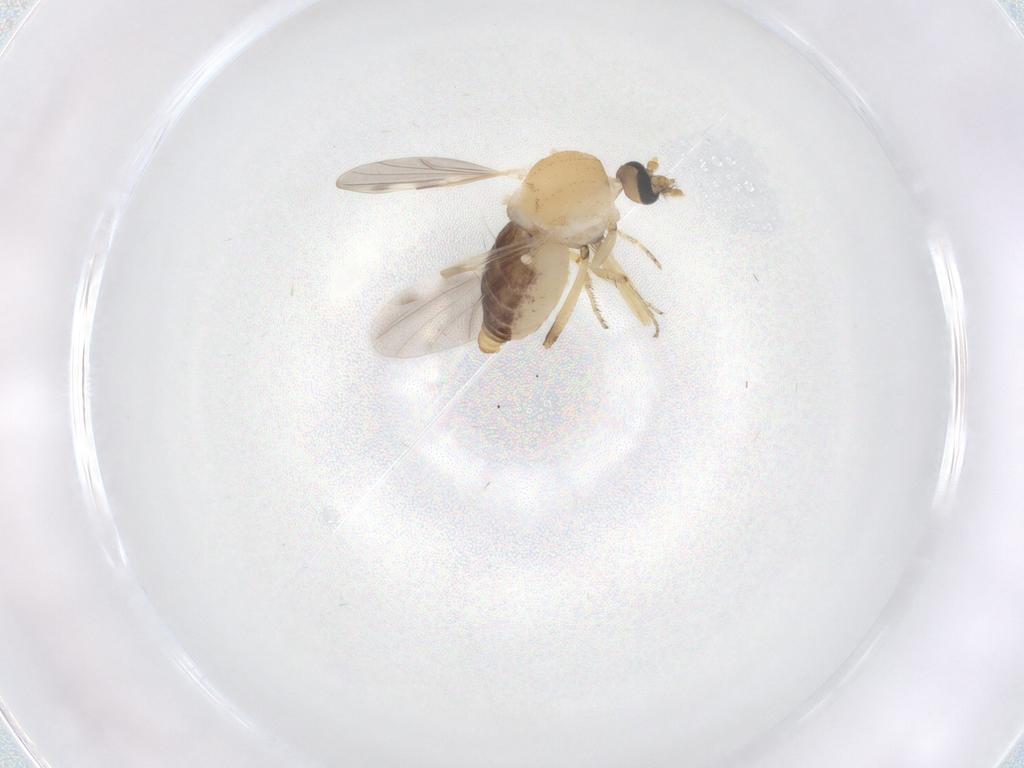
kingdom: Animalia
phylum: Arthropoda
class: Insecta
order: Diptera
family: Ceratopogonidae
